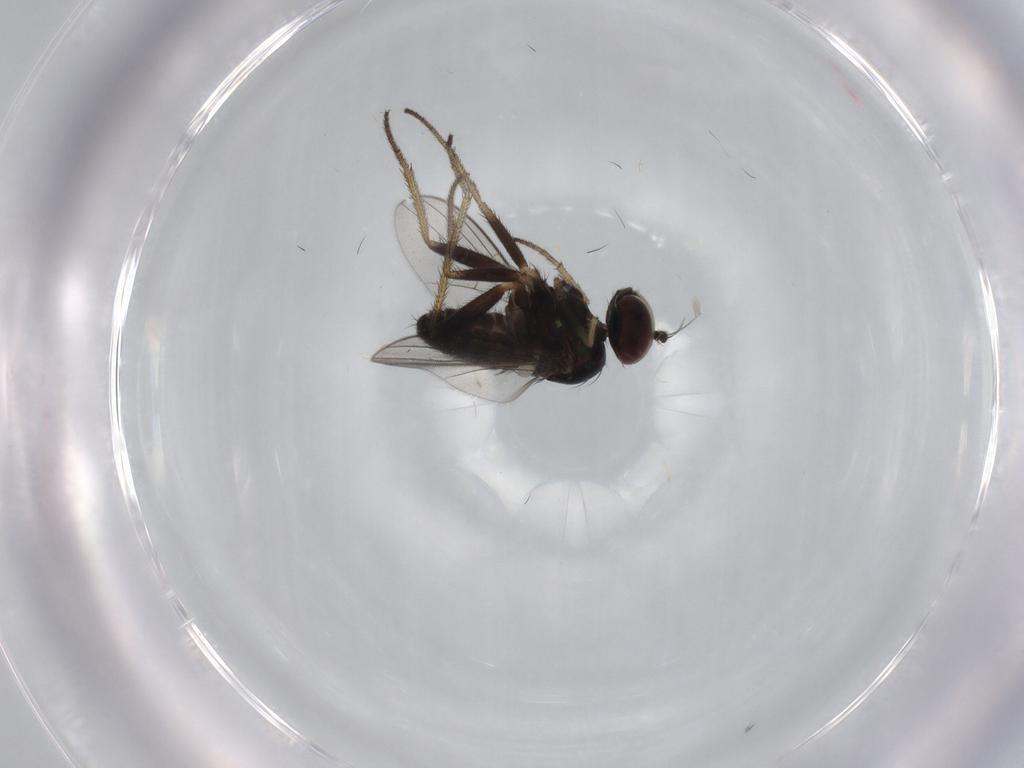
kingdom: Animalia
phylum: Arthropoda
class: Insecta
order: Diptera
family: Dolichopodidae
